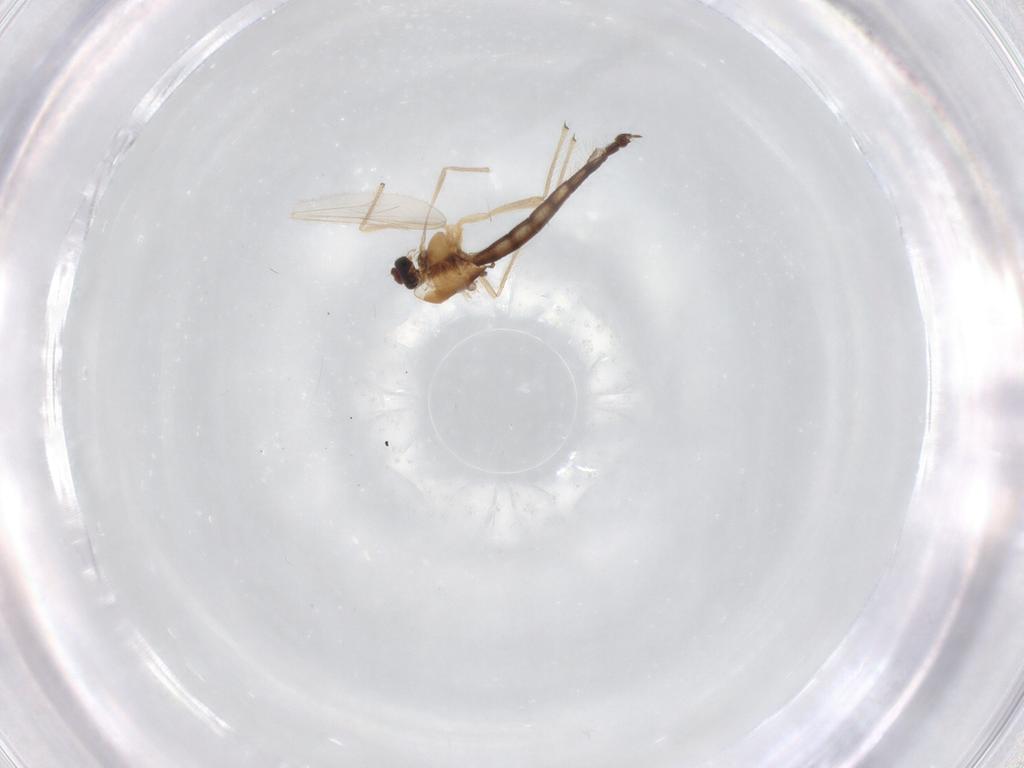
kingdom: Animalia
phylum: Arthropoda
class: Insecta
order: Diptera
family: Chironomidae
